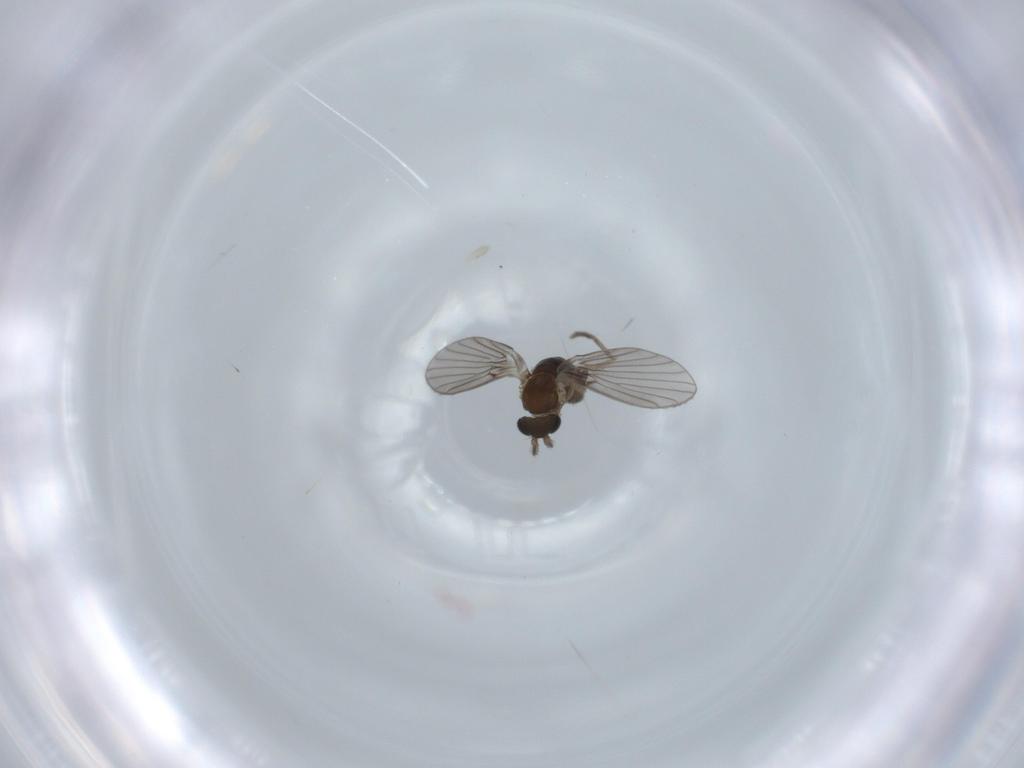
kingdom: Animalia
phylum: Arthropoda
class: Insecta
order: Diptera
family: Psychodidae
